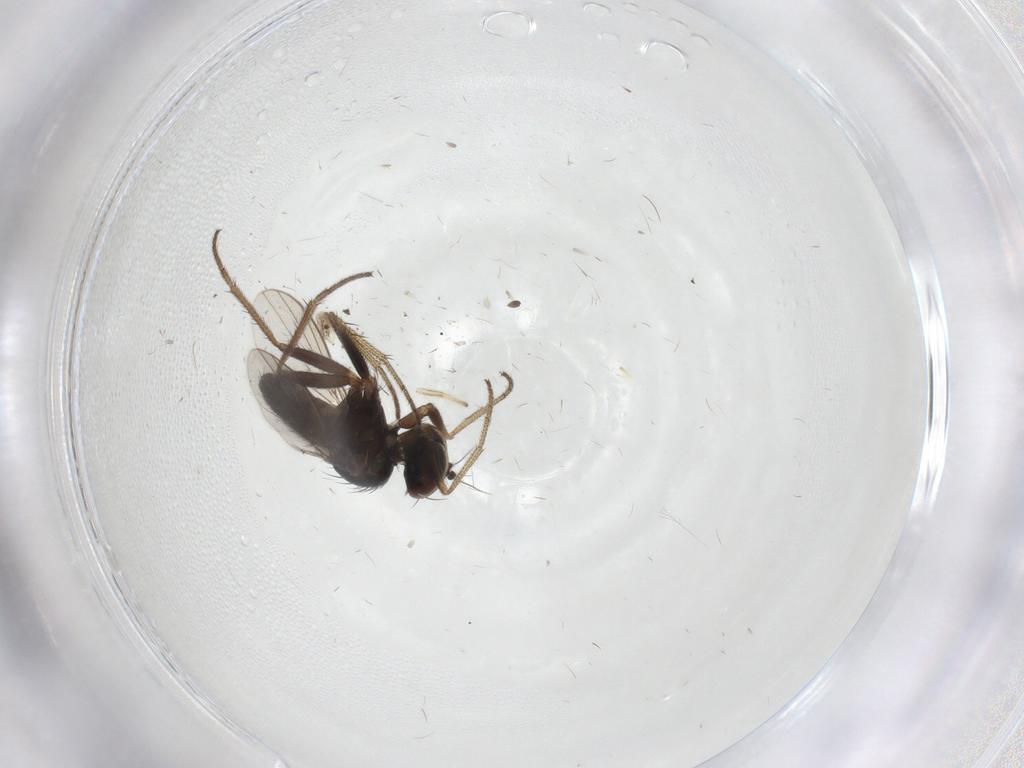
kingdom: Animalia
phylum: Arthropoda
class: Insecta
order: Diptera
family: Stratiomyidae
